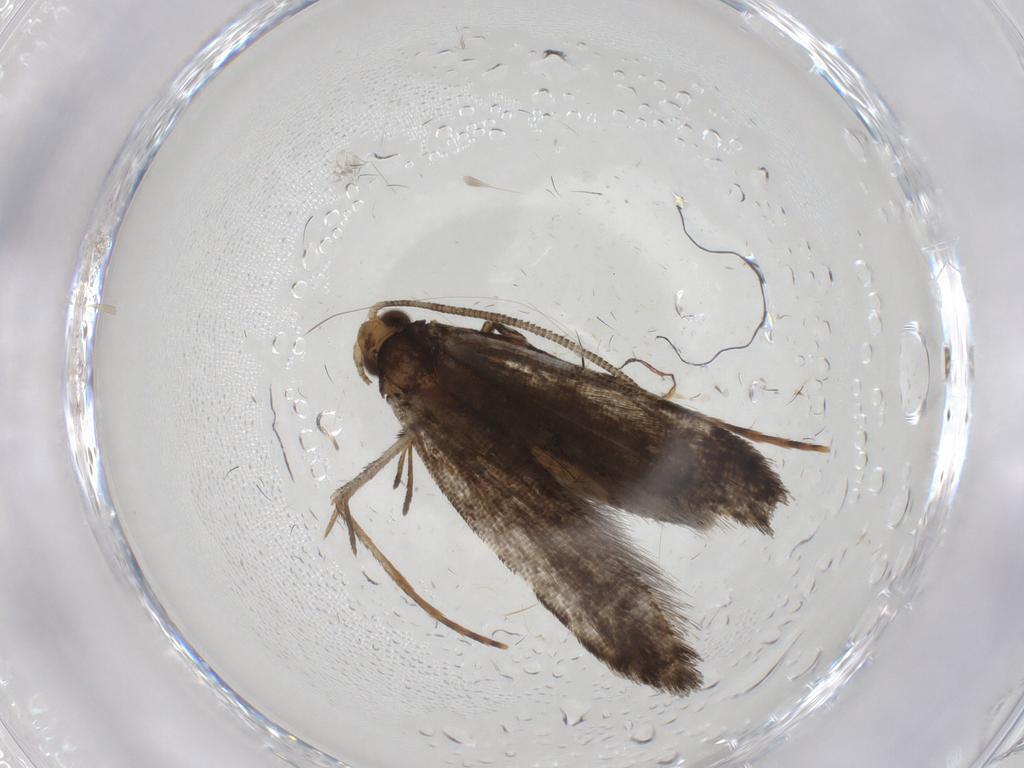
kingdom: Animalia
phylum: Arthropoda
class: Insecta
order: Lepidoptera
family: Tineidae
